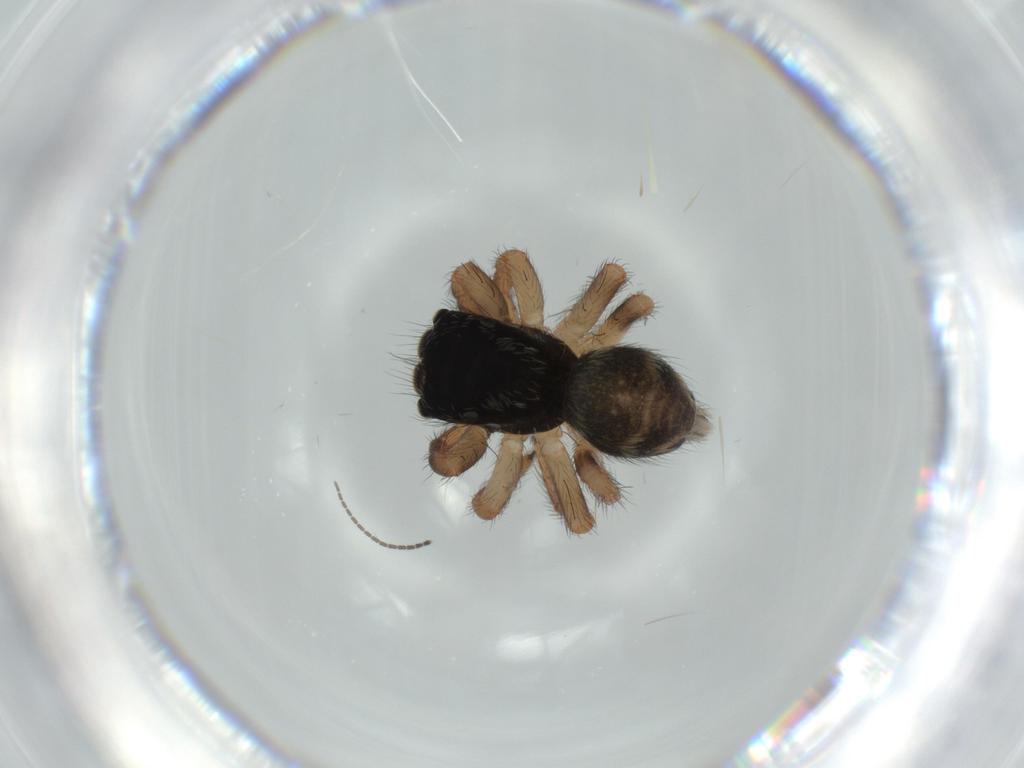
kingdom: Animalia
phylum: Arthropoda
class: Arachnida
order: Araneae
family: Salticidae
